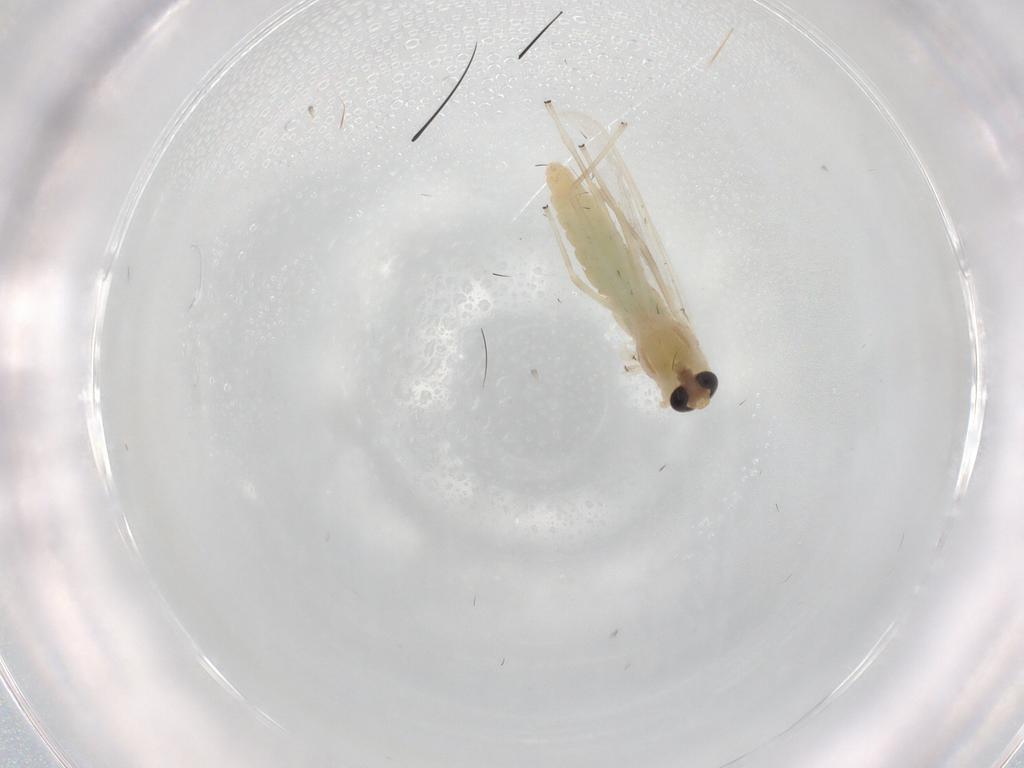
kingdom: Animalia
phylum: Arthropoda
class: Insecta
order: Diptera
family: Chironomidae
